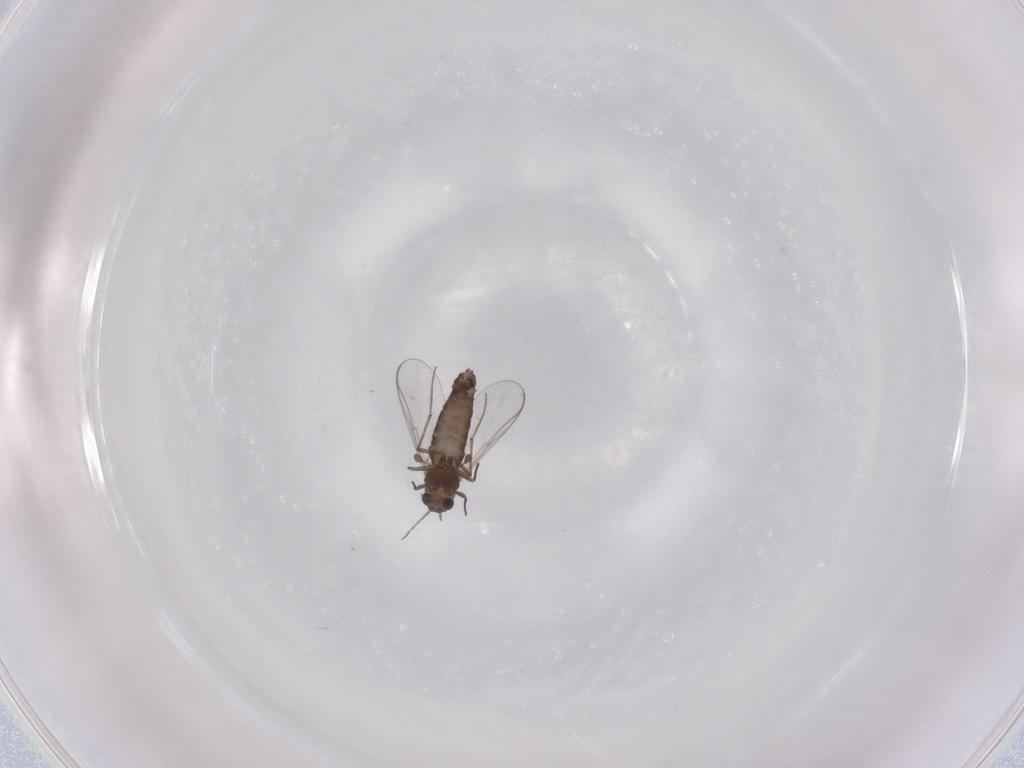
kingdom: Animalia
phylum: Arthropoda
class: Insecta
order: Diptera
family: Chironomidae
